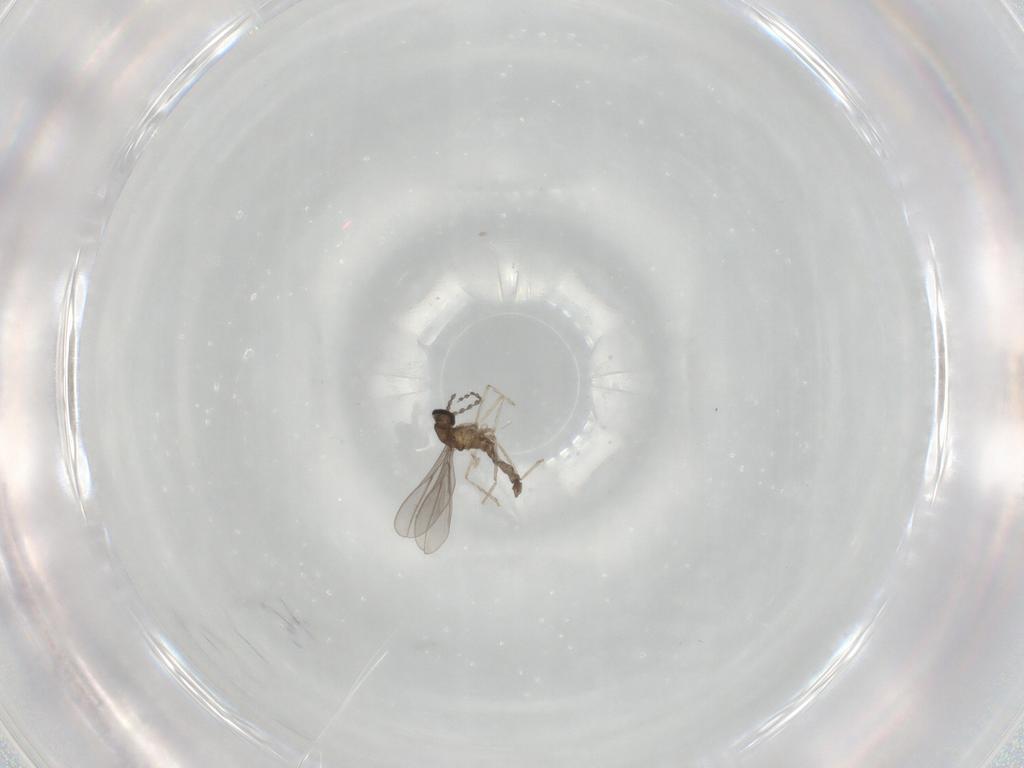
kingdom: Animalia
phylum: Arthropoda
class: Insecta
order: Diptera
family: Cecidomyiidae
